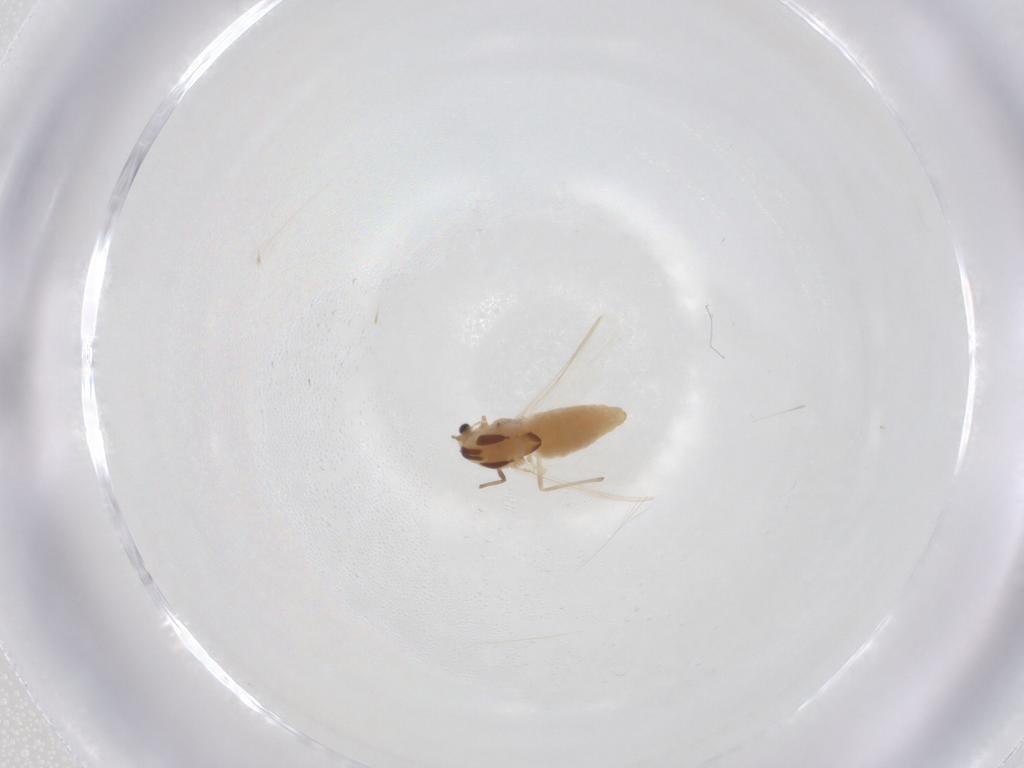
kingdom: Animalia
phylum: Arthropoda
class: Insecta
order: Diptera
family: Chironomidae
